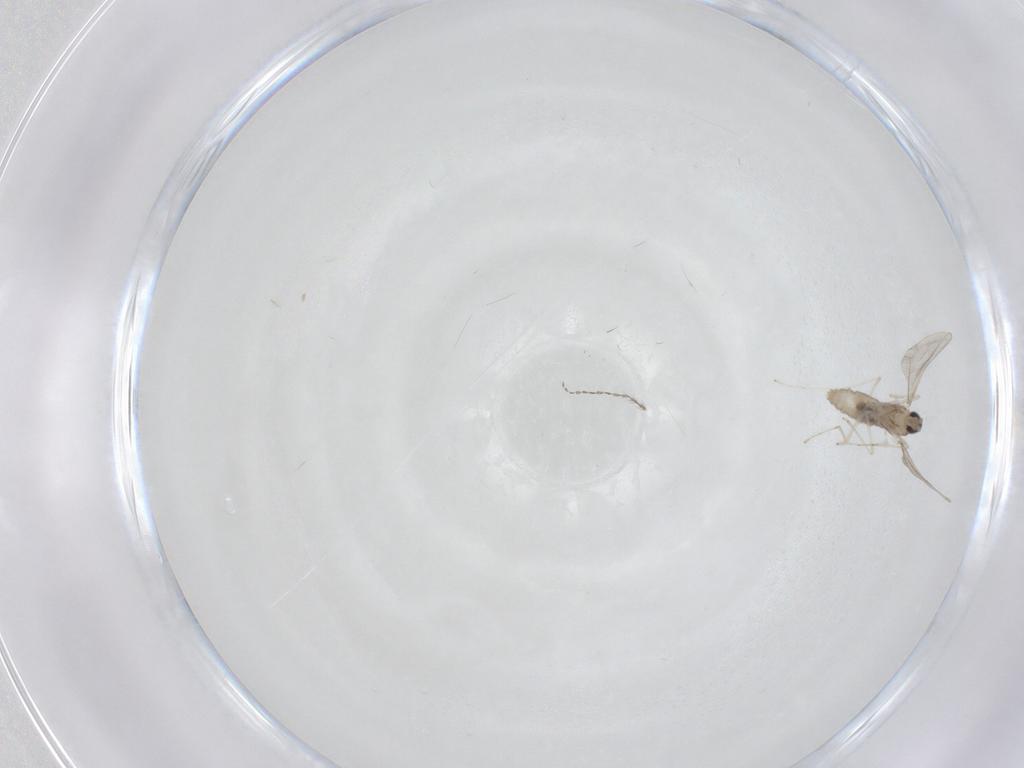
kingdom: Animalia
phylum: Arthropoda
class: Insecta
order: Diptera
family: Cecidomyiidae
